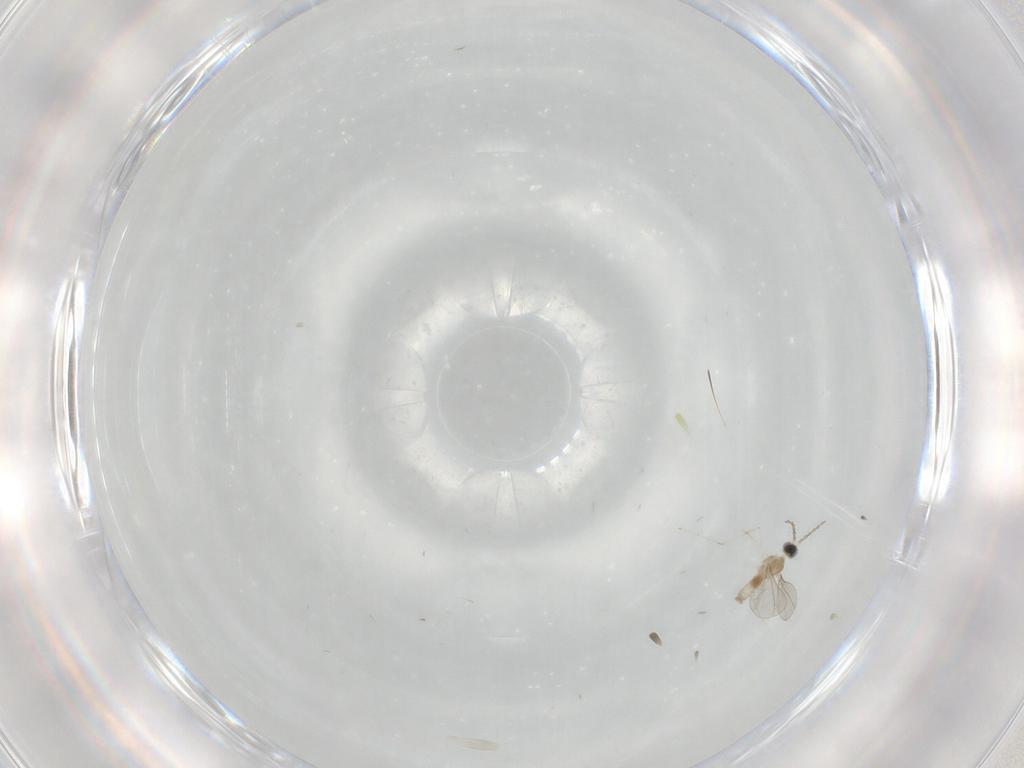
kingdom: Animalia
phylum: Arthropoda
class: Insecta
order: Diptera
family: Cecidomyiidae
